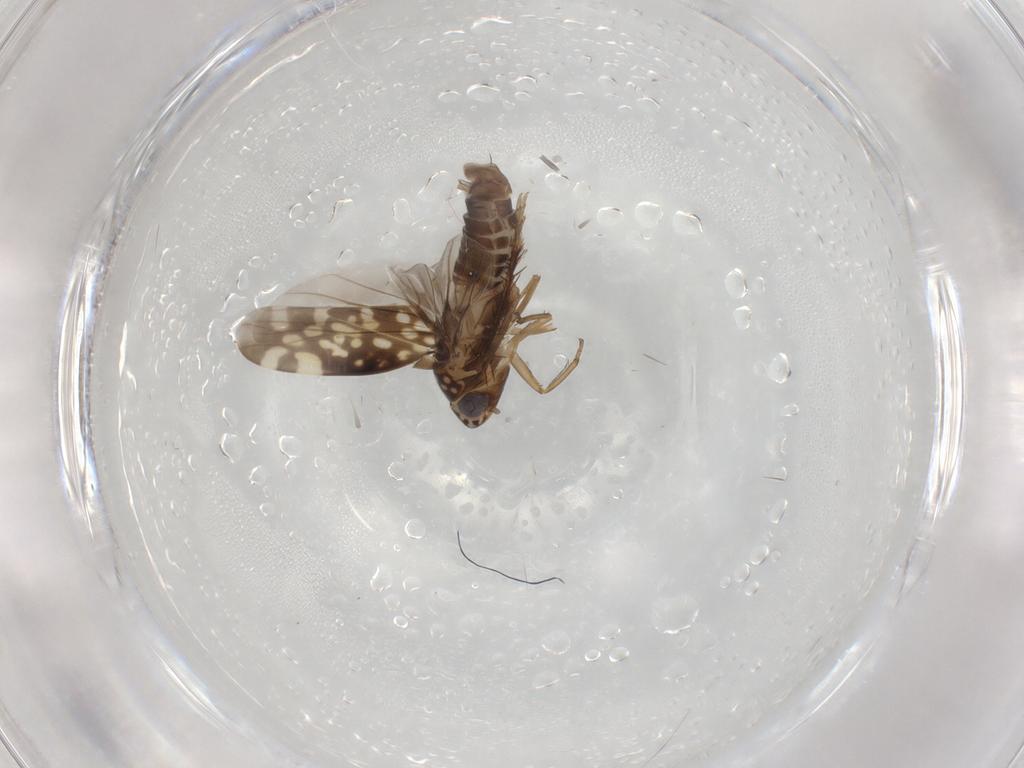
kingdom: Animalia
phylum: Arthropoda
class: Insecta
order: Hemiptera
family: Cicadellidae
